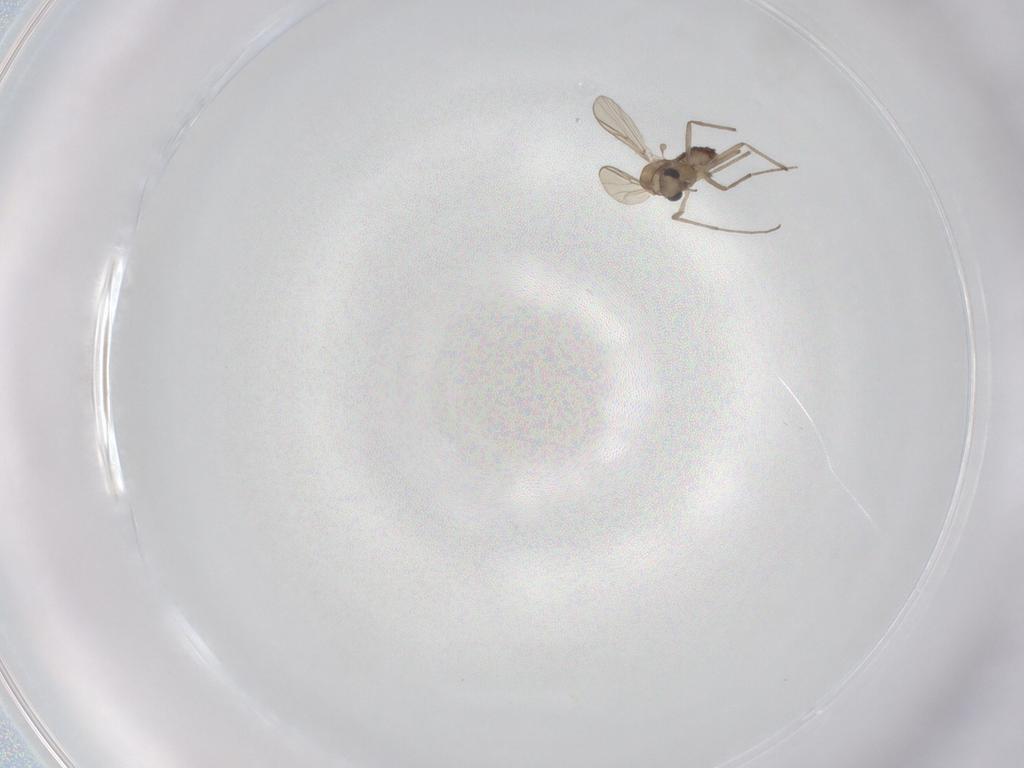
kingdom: Animalia
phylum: Arthropoda
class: Insecta
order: Diptera
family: Chironomidae
